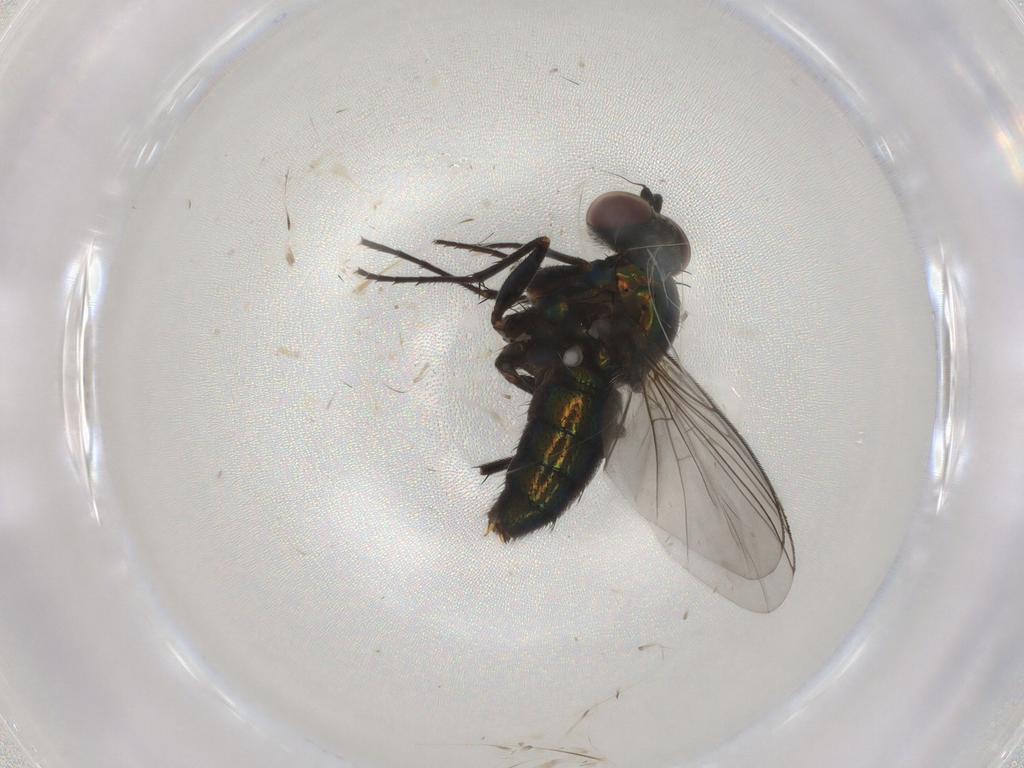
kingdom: Animalia
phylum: Arthropoda
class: Insecta
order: Diptera
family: Dolichopodidae
